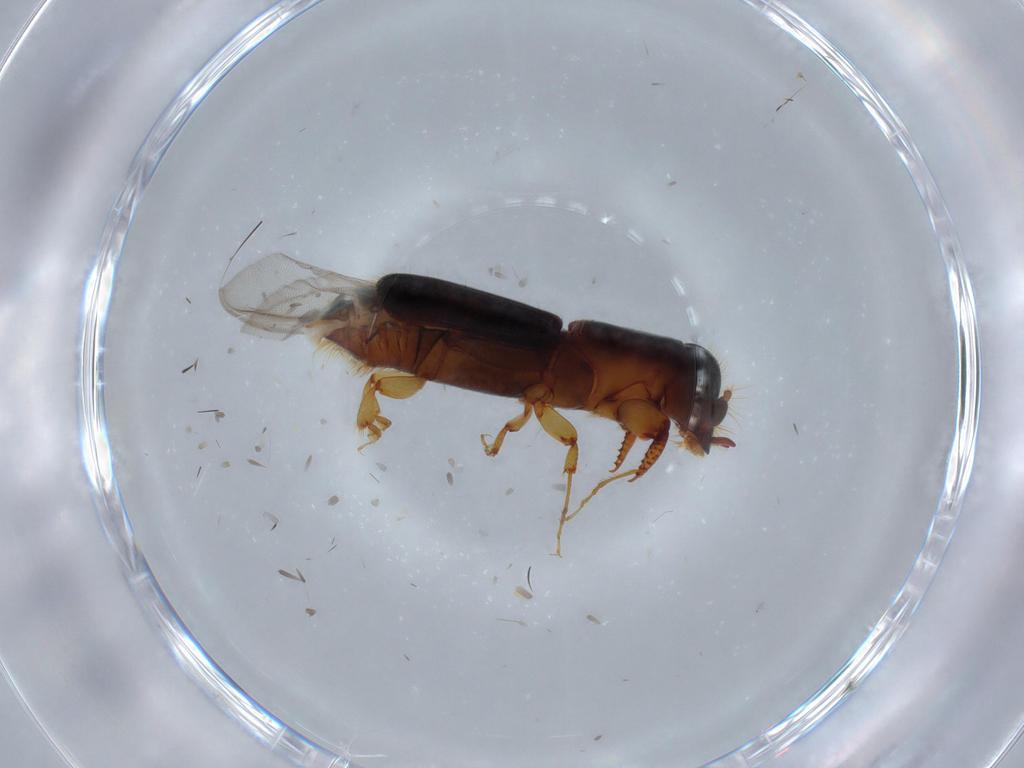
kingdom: Animalia
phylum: Arthropoda
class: Insecta
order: Coleoptera
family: Curculionidae
